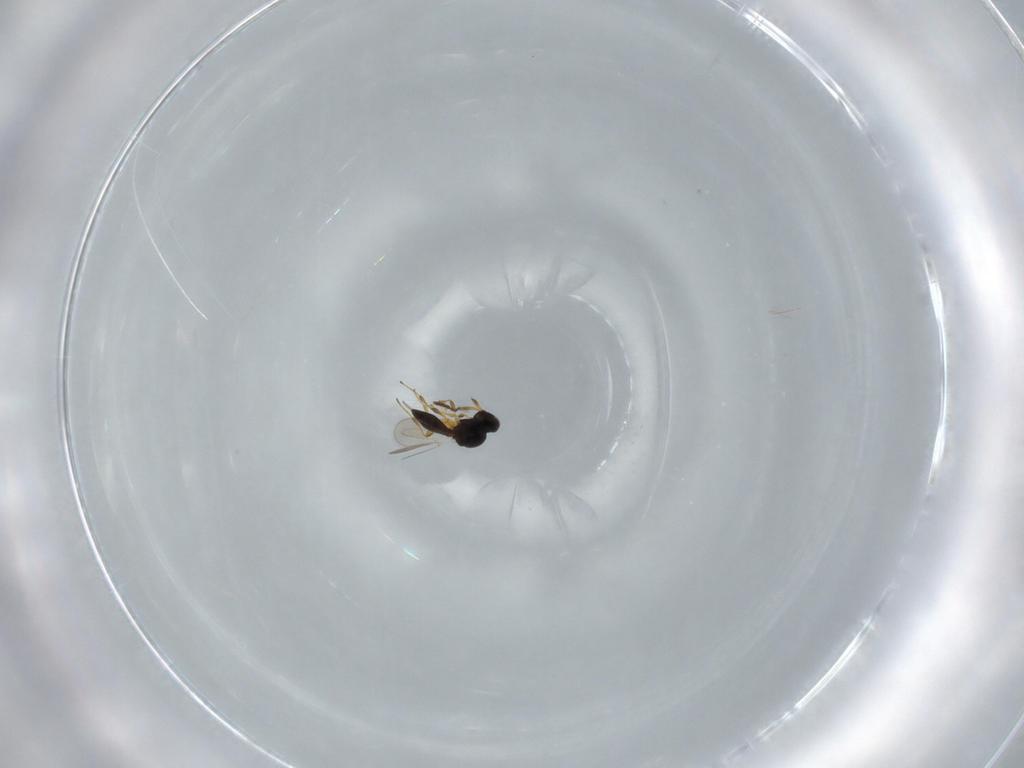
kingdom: Animalia
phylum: Arthropoda
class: Insecta
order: Hymenoptera
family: Platygastridae
